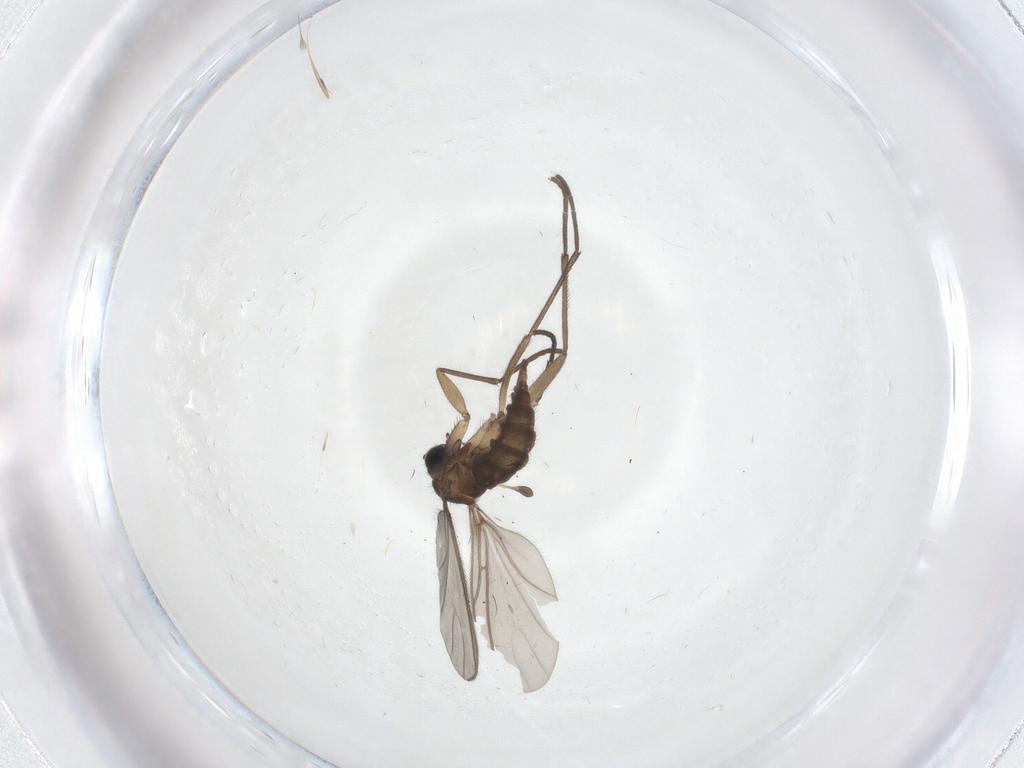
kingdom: Animalia
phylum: Arthropoda
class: Insecta
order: Diptera
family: Sciaridae
